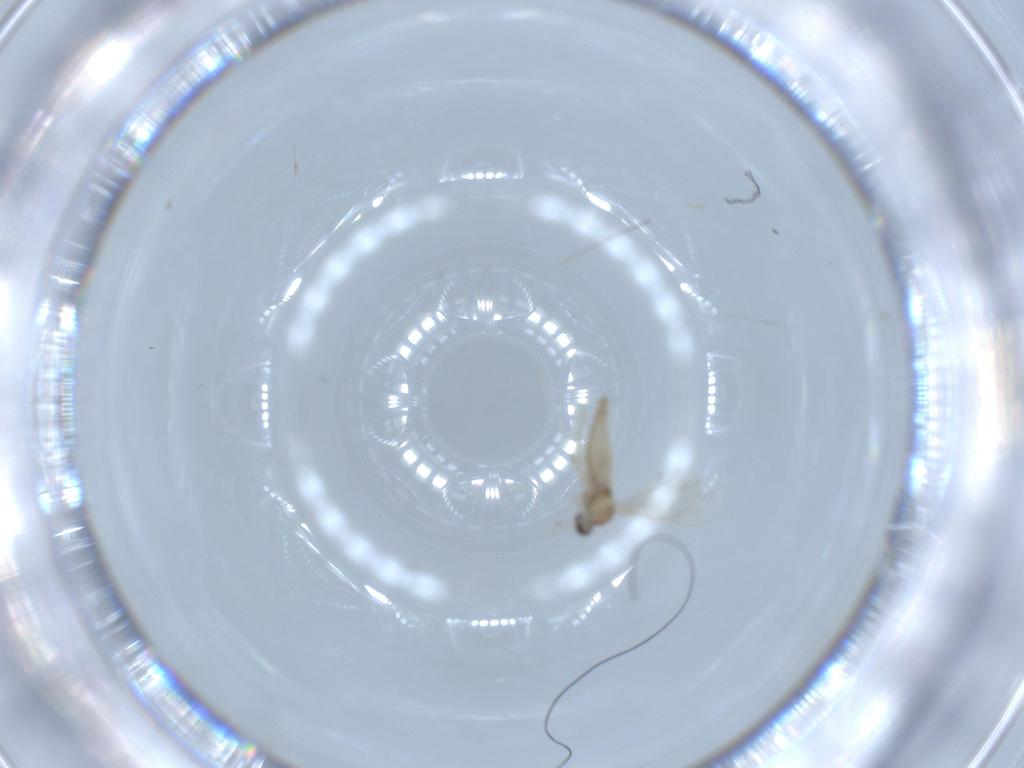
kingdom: Animalia
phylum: Arthropoda
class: Insecta
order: Diptera
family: Cecidomyiidae
